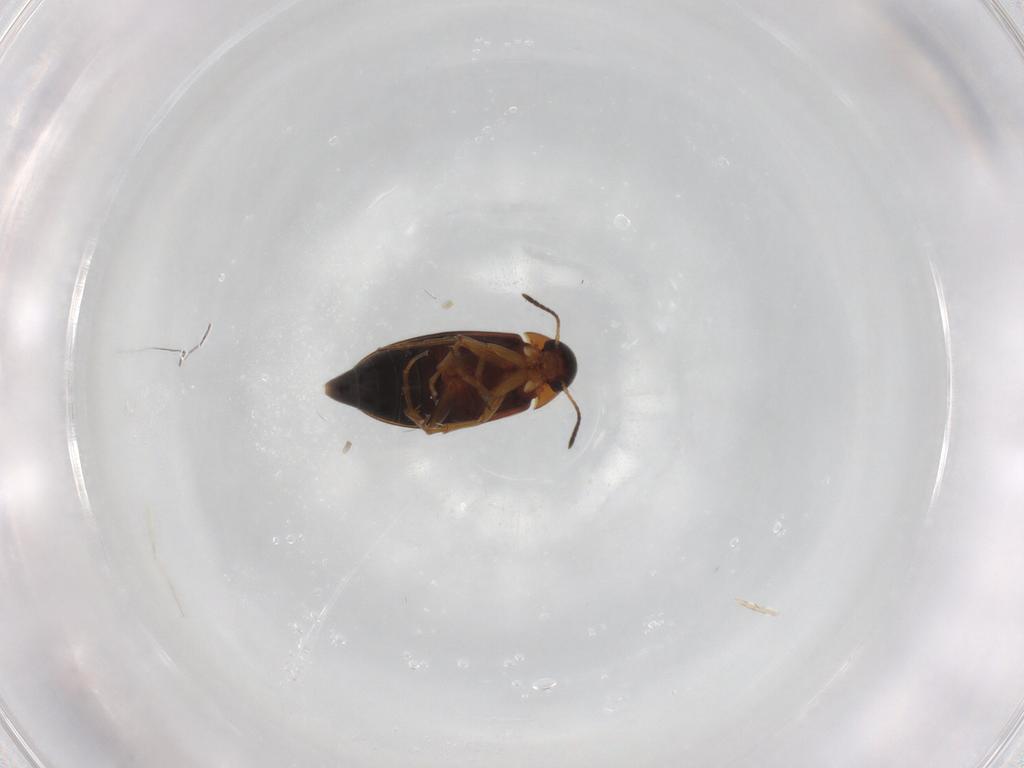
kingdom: Animalia
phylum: Arthropoda
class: Insecta
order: Coleoptera
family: Scraptiidae
